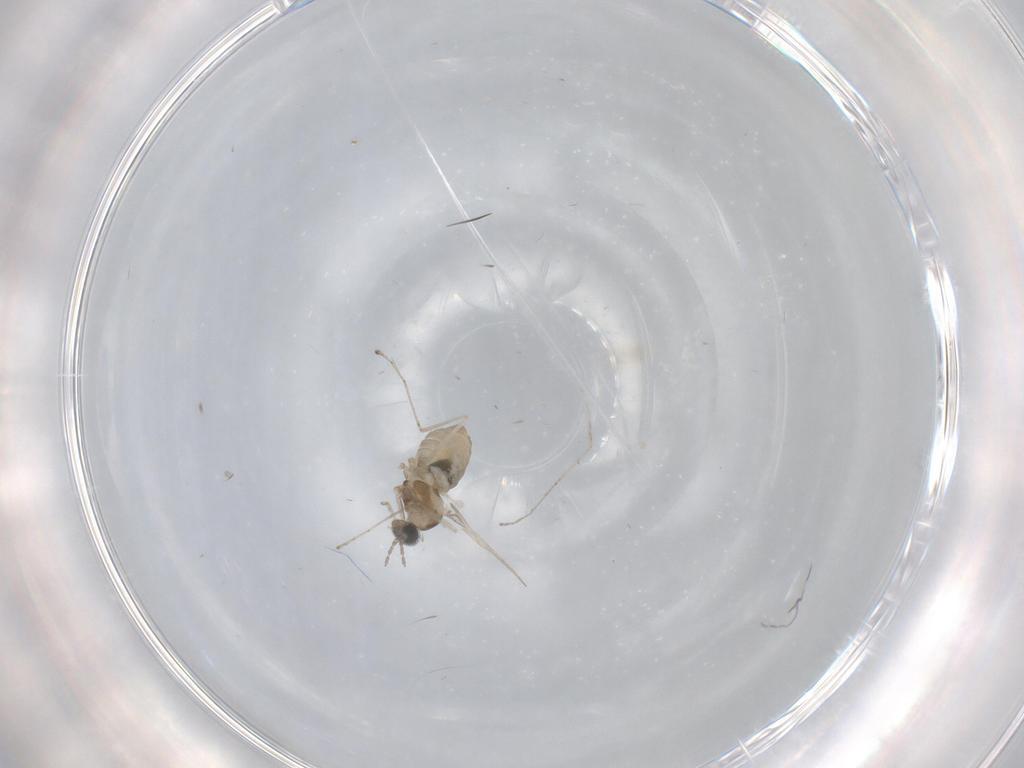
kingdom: Animalia
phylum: Arthropoda
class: Insecta
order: Diptera
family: Cecidomyiidae
